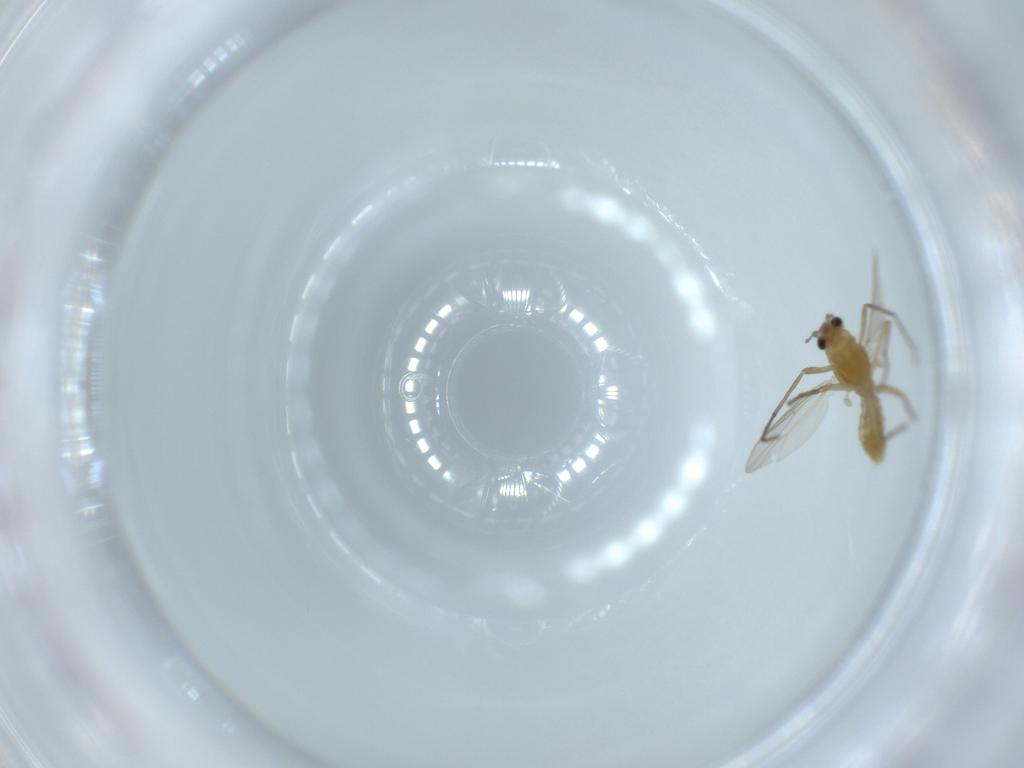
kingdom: Animalia
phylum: Arthropoda
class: Insecta
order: Diptera
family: Chironomidae
